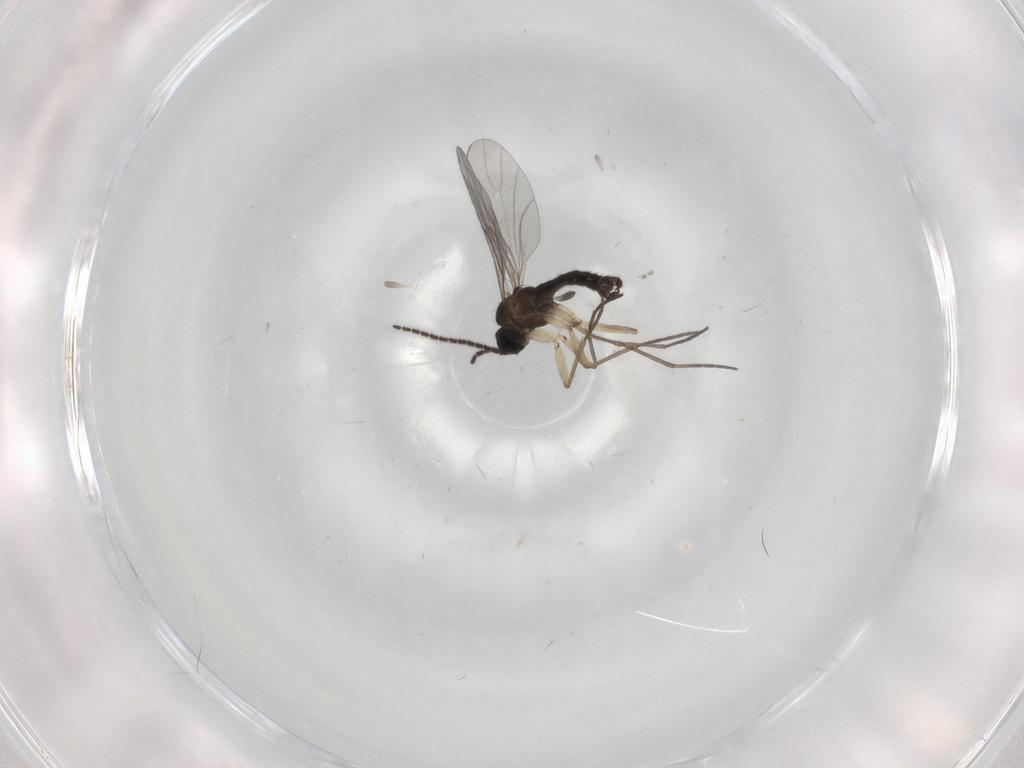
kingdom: Animalia
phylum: Arthropoda
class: Insecta
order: Diptera
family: Sciaridae
